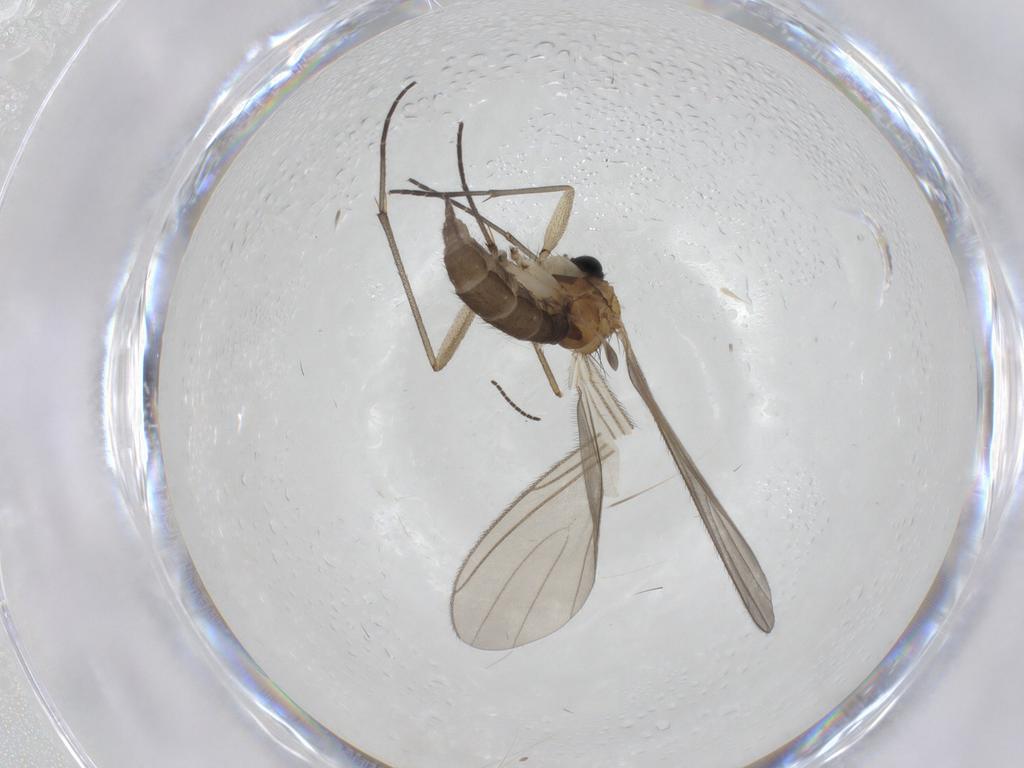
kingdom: Animalia
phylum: Arthropoda
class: Insecta
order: Diptera
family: Sciaridae
